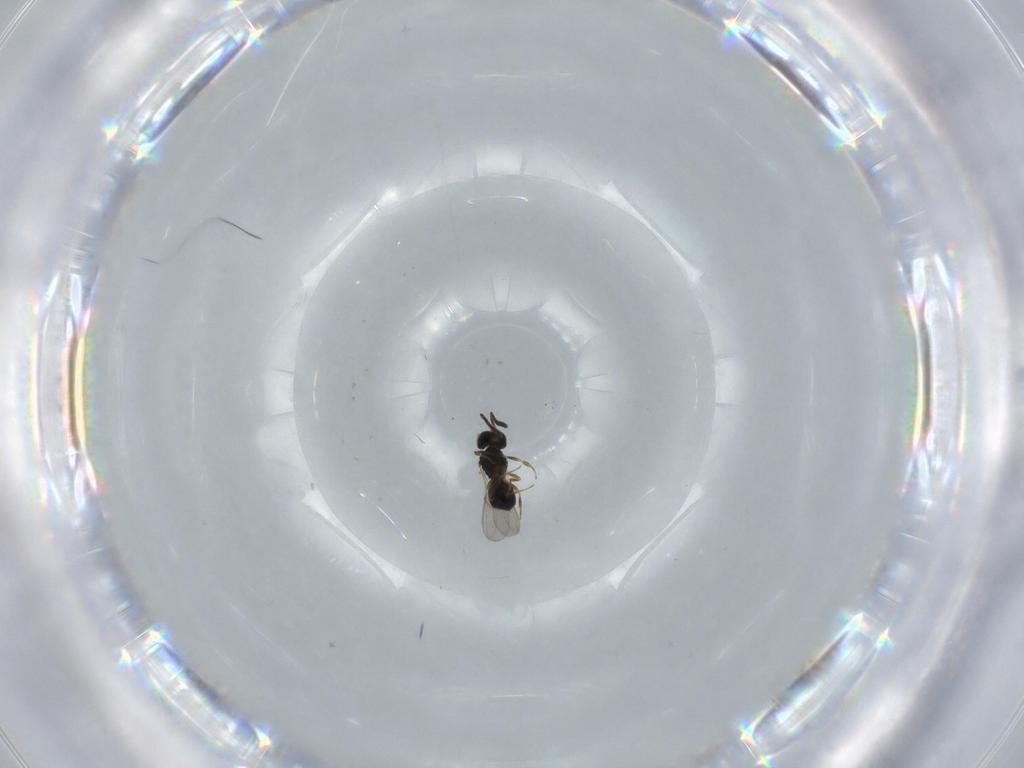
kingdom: Animalia
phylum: Arthropoda
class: Insecta
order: Hymenoptera
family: Scelionidae
